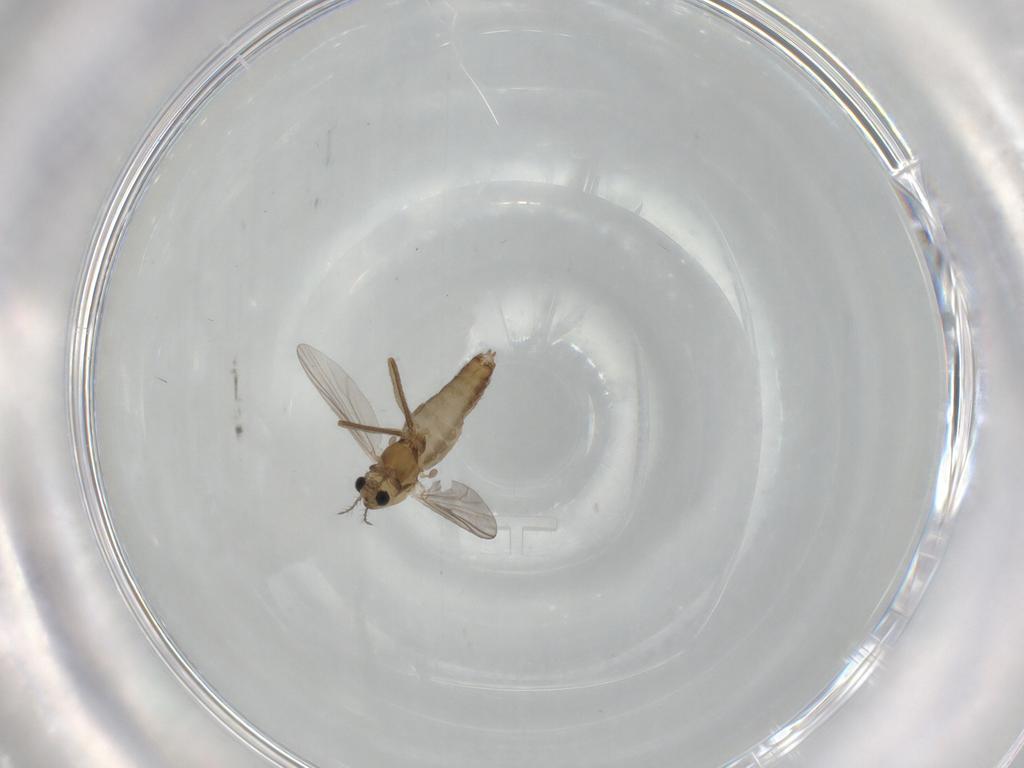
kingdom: Animalia
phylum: Arthropoda
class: Insecta
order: Diptera
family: Chironomidae
